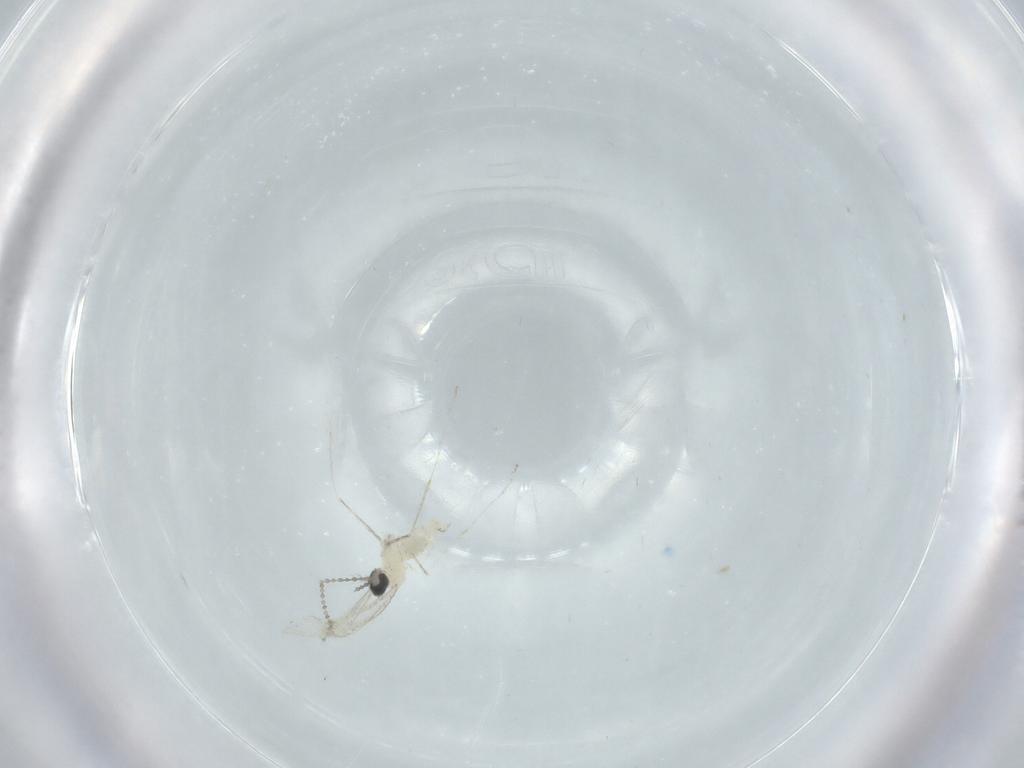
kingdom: Animalia
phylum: Arthropoda
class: Insecta
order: Diptera
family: Cecidomyiidae
